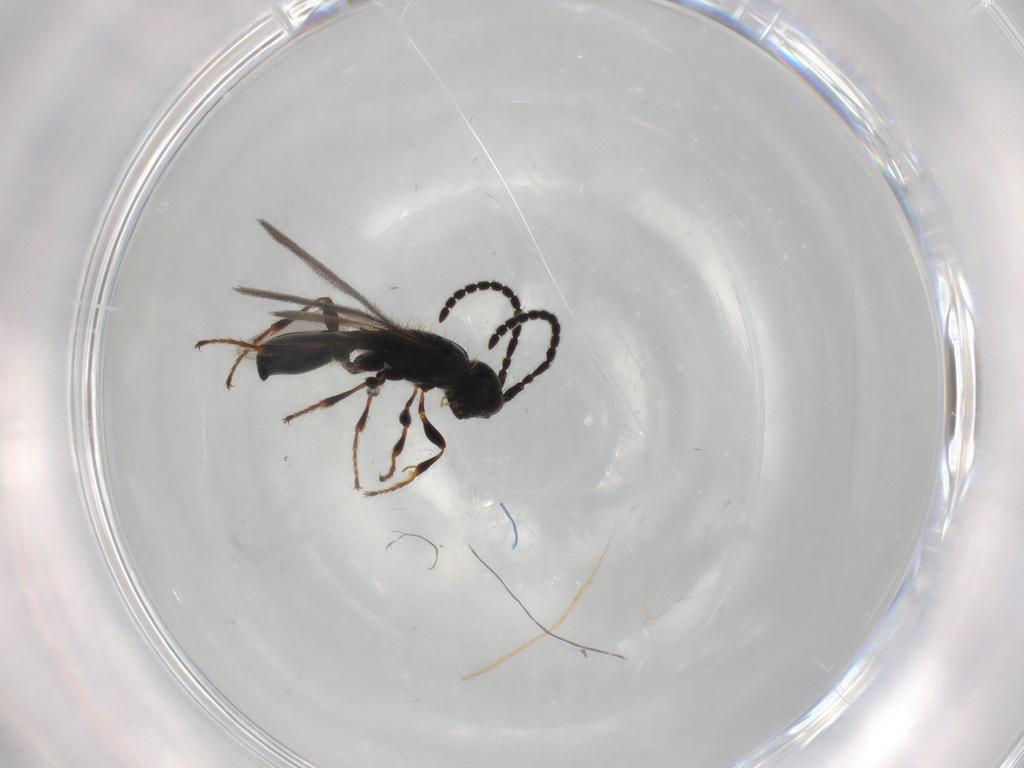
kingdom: Animalia
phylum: Arthropoda
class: Insecta
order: Hymenoptera
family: Diapriidae
